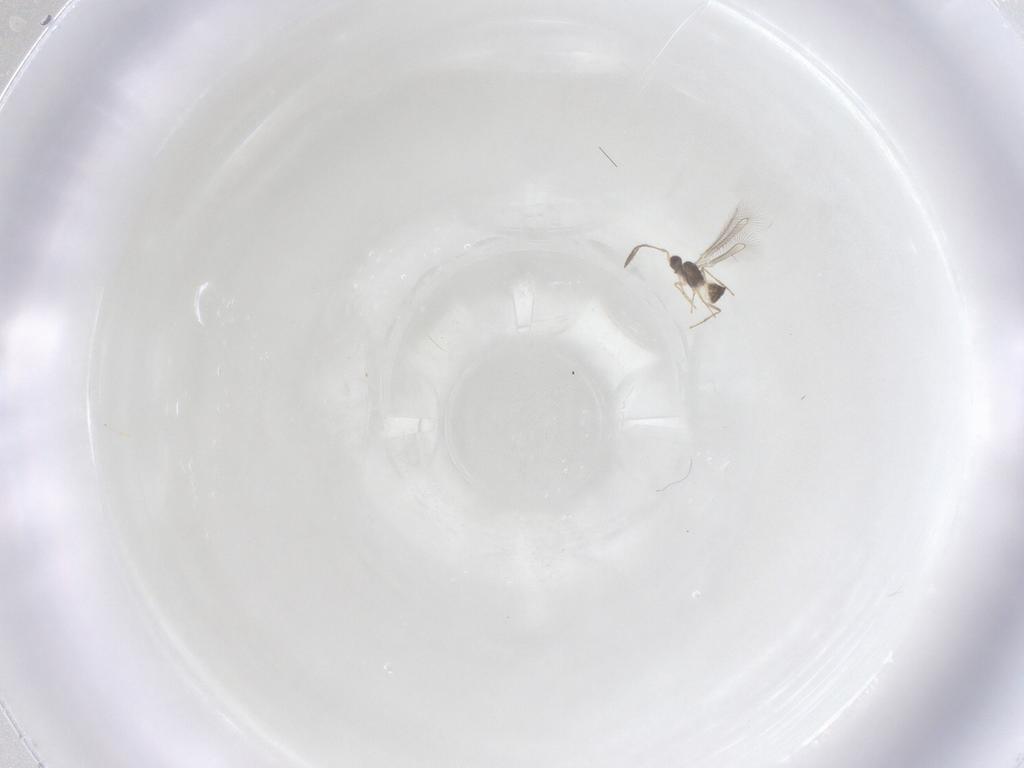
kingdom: Animalia
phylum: Arthropoda
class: Insecta
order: Hymenoptera
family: Mymaridae
